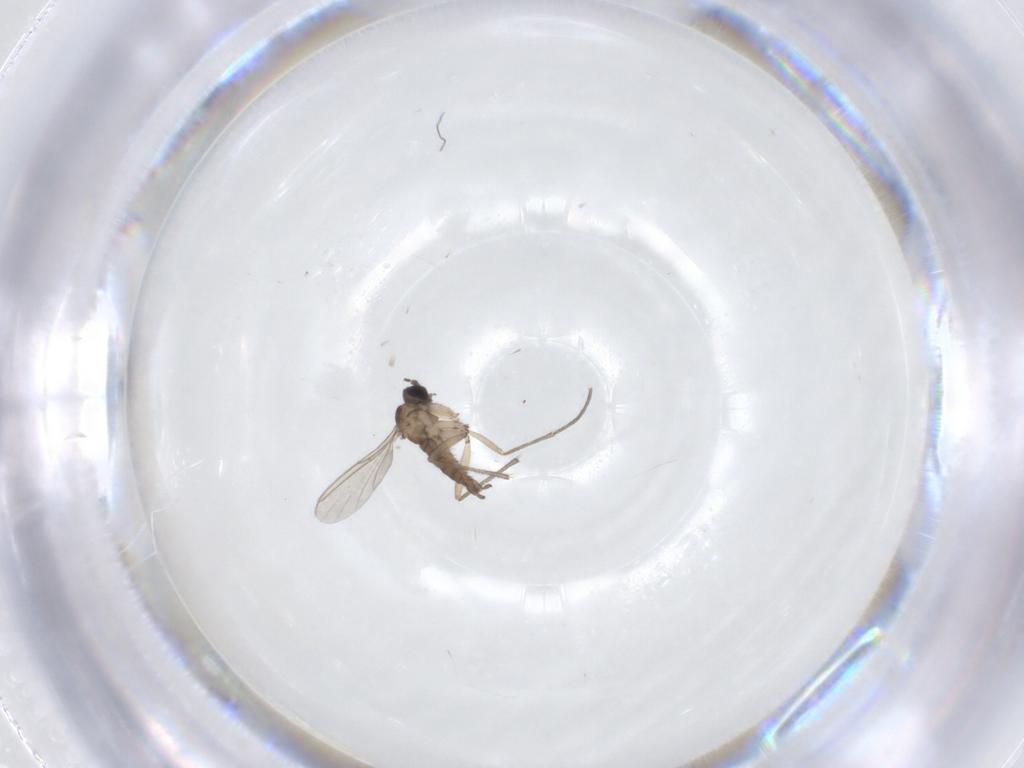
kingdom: Animalia
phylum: Arthropoda
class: Insecta
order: Diptera
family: Sciaridae
